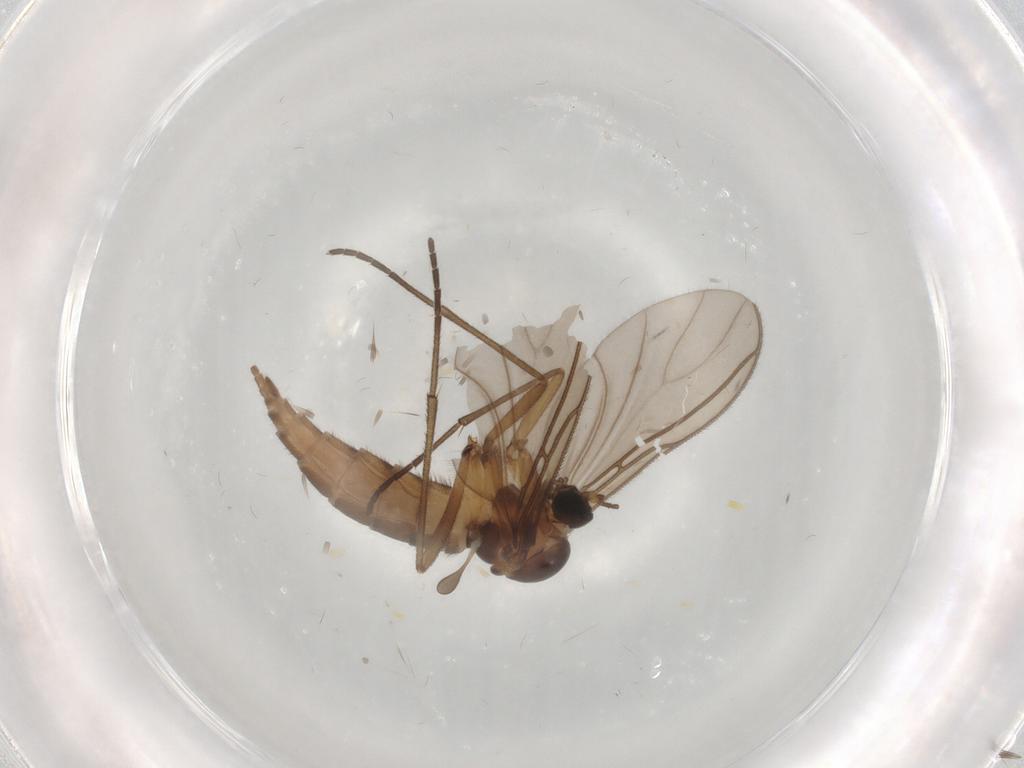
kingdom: Animalia
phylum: Arthropoda
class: Insecta
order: Diptera
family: Sciaridae
